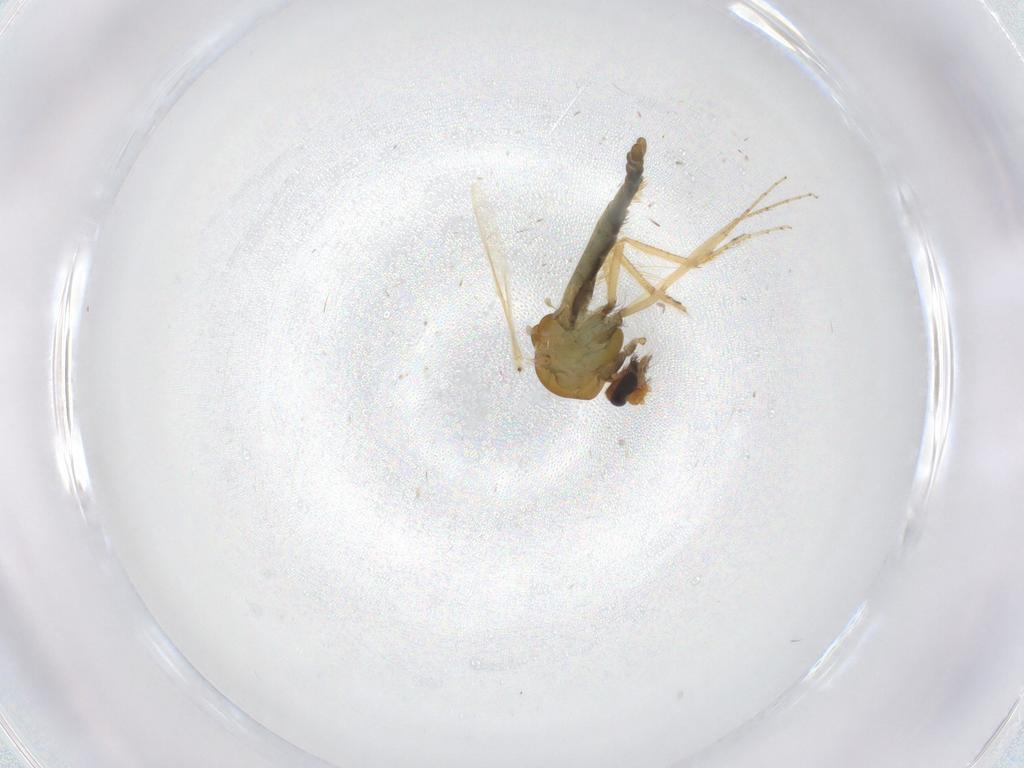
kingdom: Animalia
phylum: Arthropoda
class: Insecta
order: Diptera
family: Ceratopogonidae
